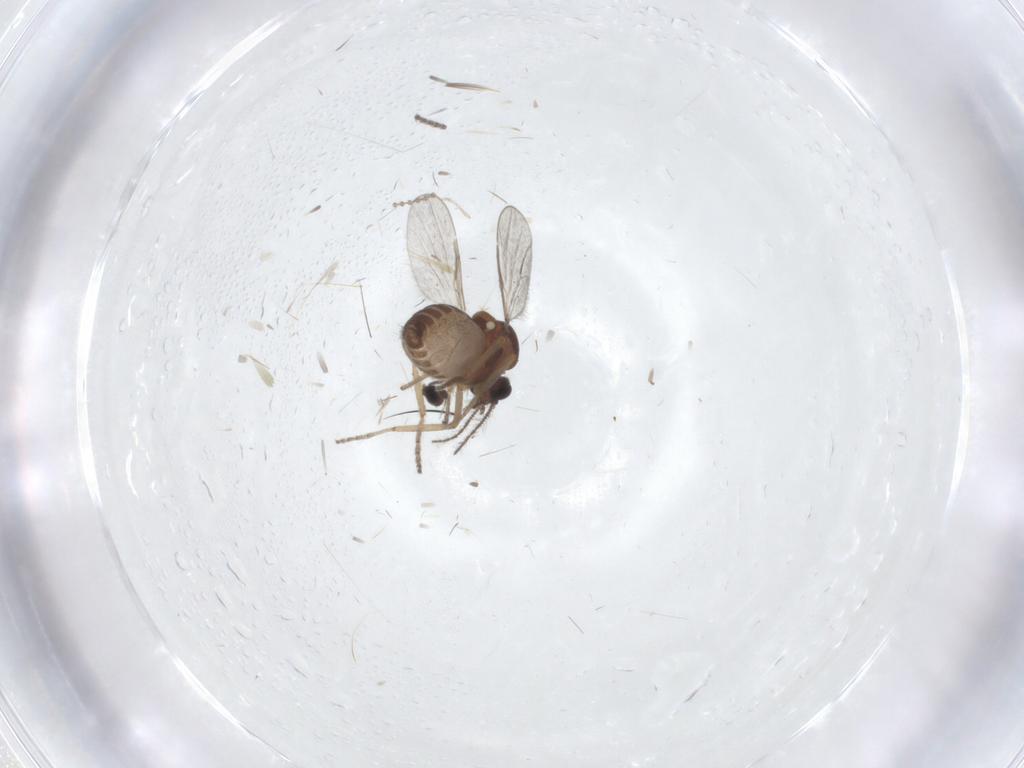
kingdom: Animalia
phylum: Arthropoda
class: Insecta
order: Diptera
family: Phoridae
